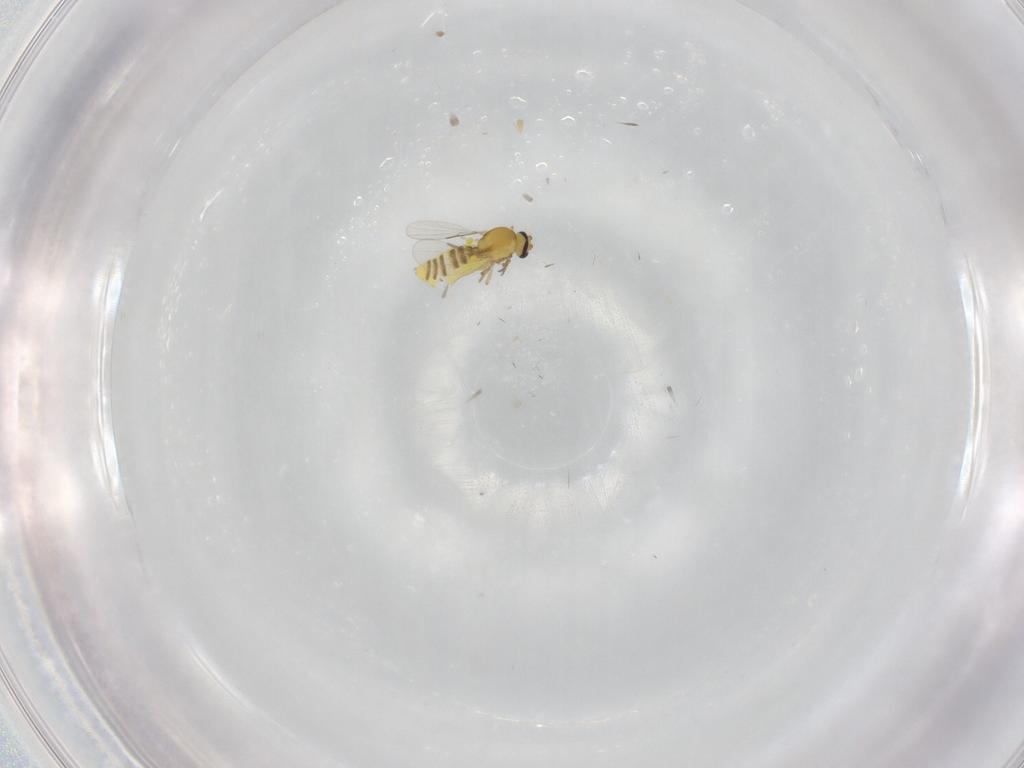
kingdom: Animalia
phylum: Arthropoda
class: Insecta
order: Diptera
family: Ceratopogonidae
